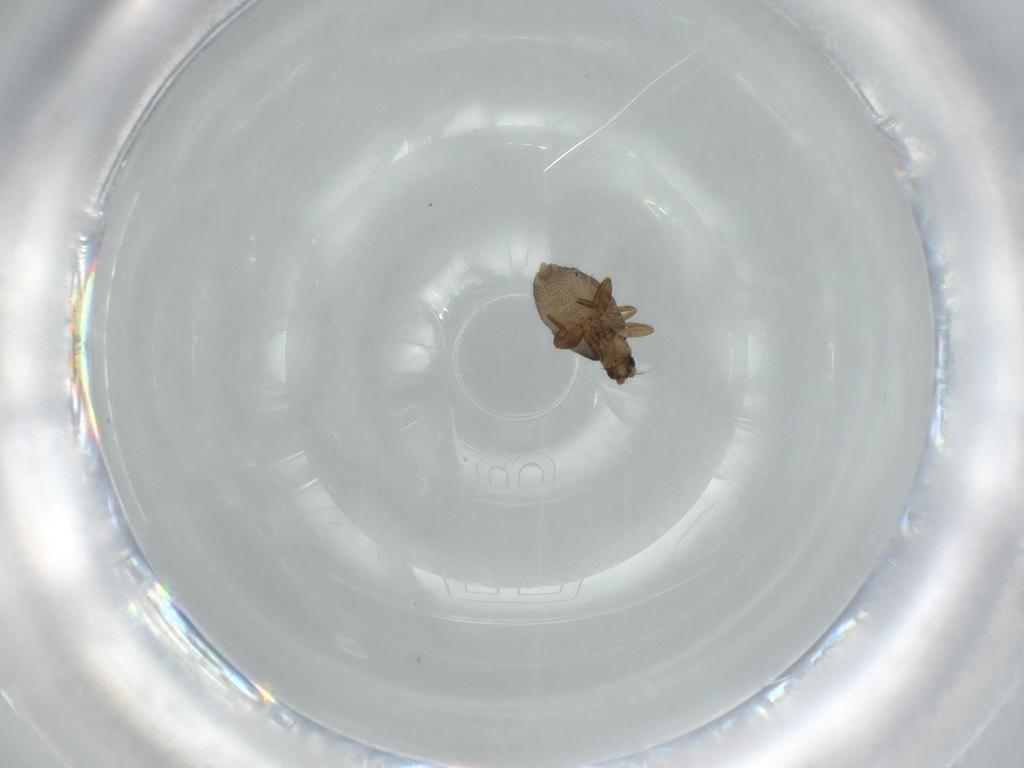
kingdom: Animalia
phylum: Arthropoda
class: Insecta
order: Diptera
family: Phoridae
